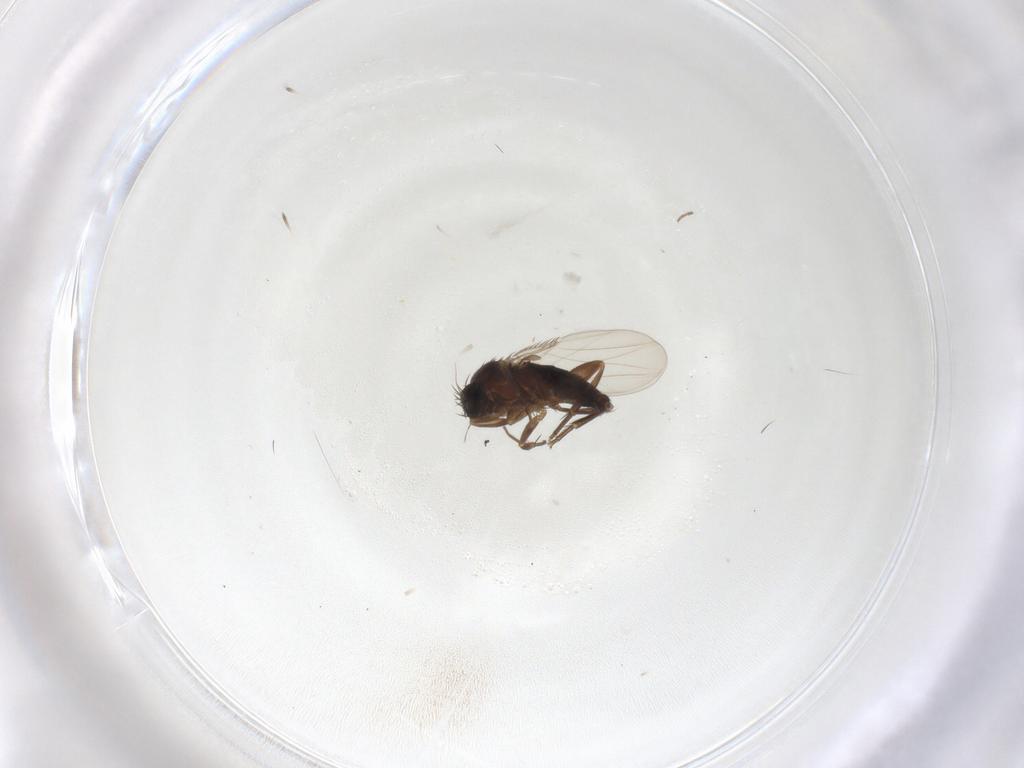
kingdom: Animalia
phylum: Arthropoda
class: Insecta
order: Diptera
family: Phoridae
